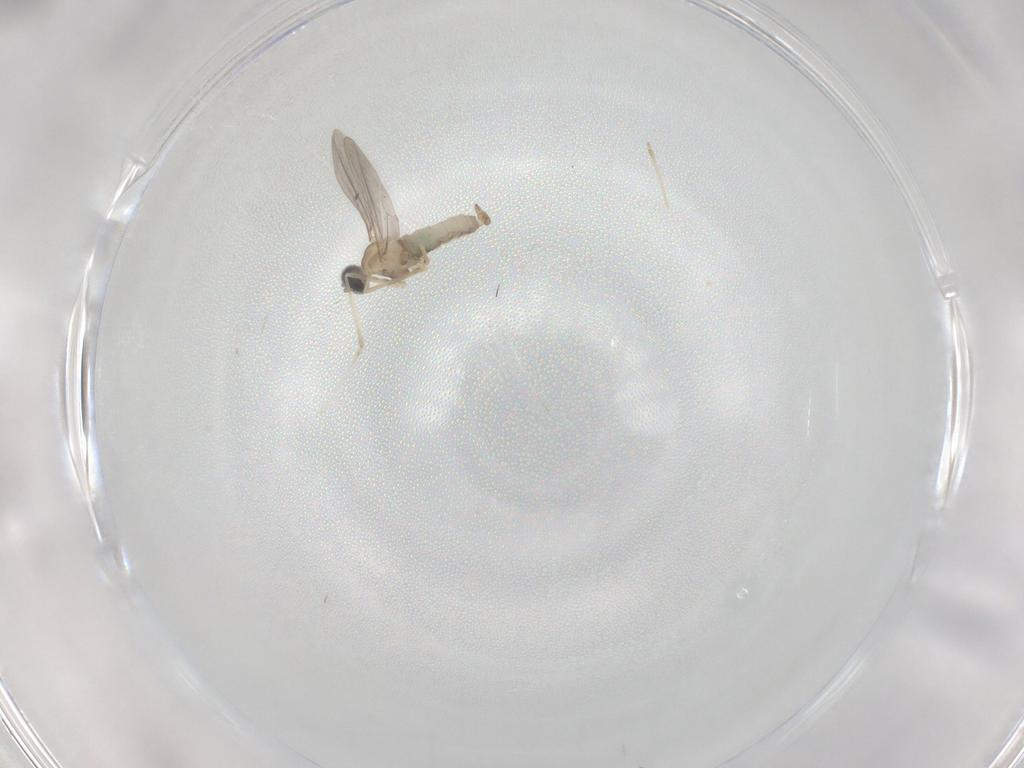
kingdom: Animalia
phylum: Arthropoda
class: Insecta
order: Diptera
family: Cecidomyiidae
